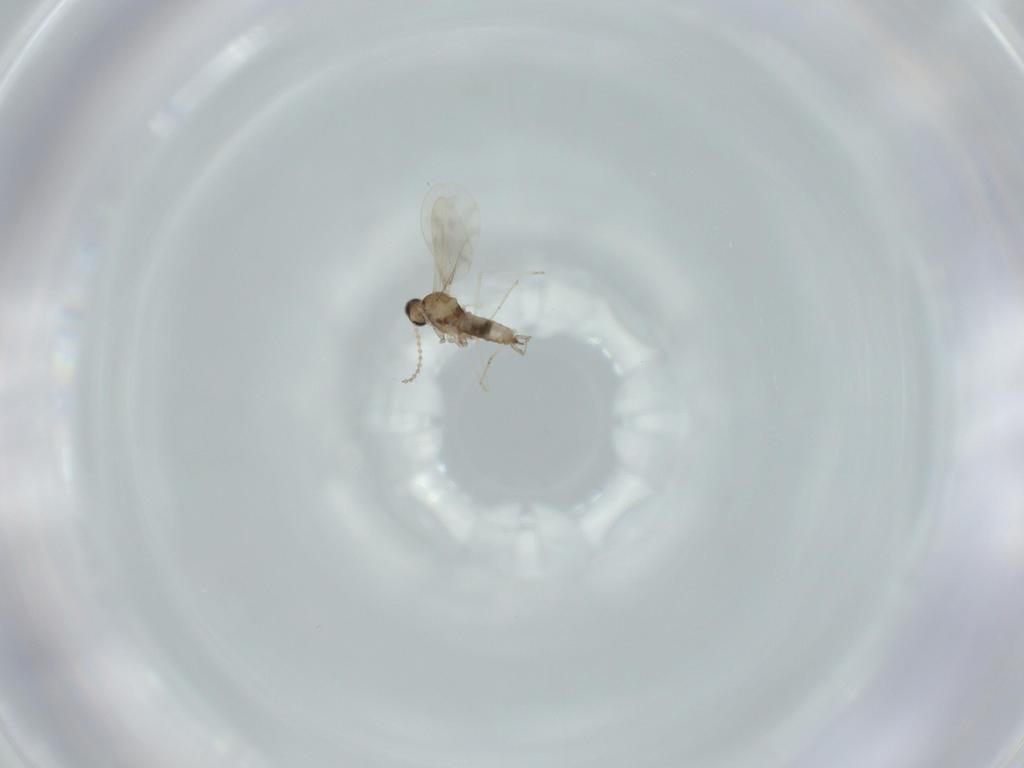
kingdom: Animalia
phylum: Arthropoda
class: Insecta
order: Diptera
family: Cecidomyiidae
